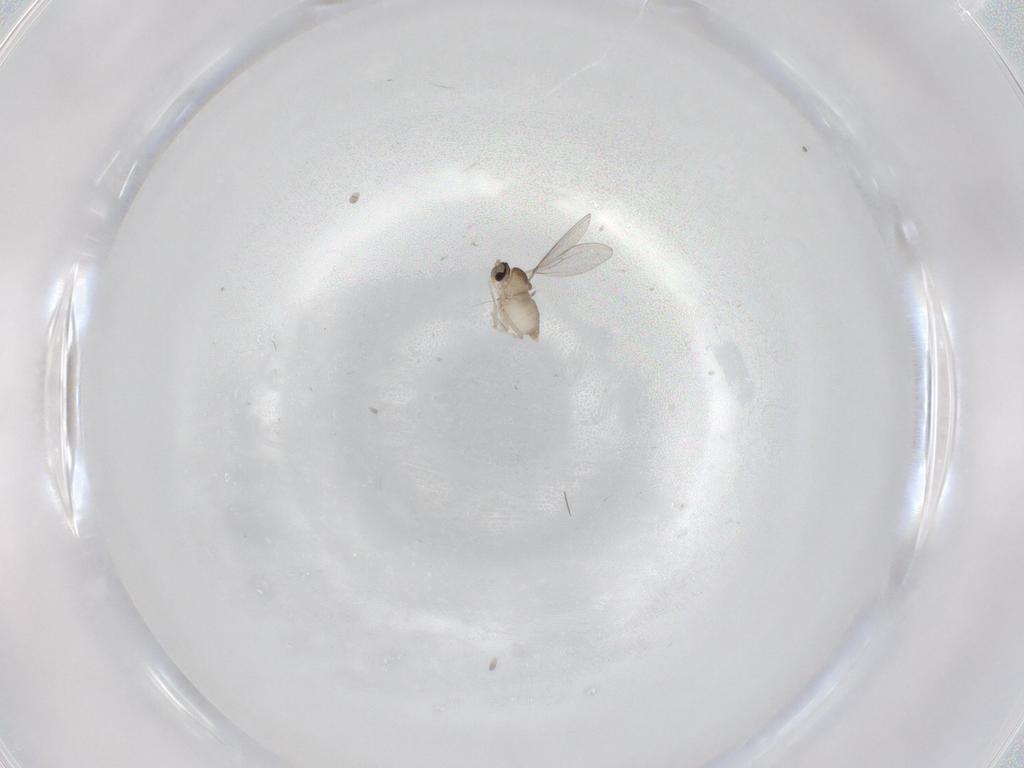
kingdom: Animalia
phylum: Arthropoda
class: Insecta
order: Diptera
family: Cecidomyiidae
